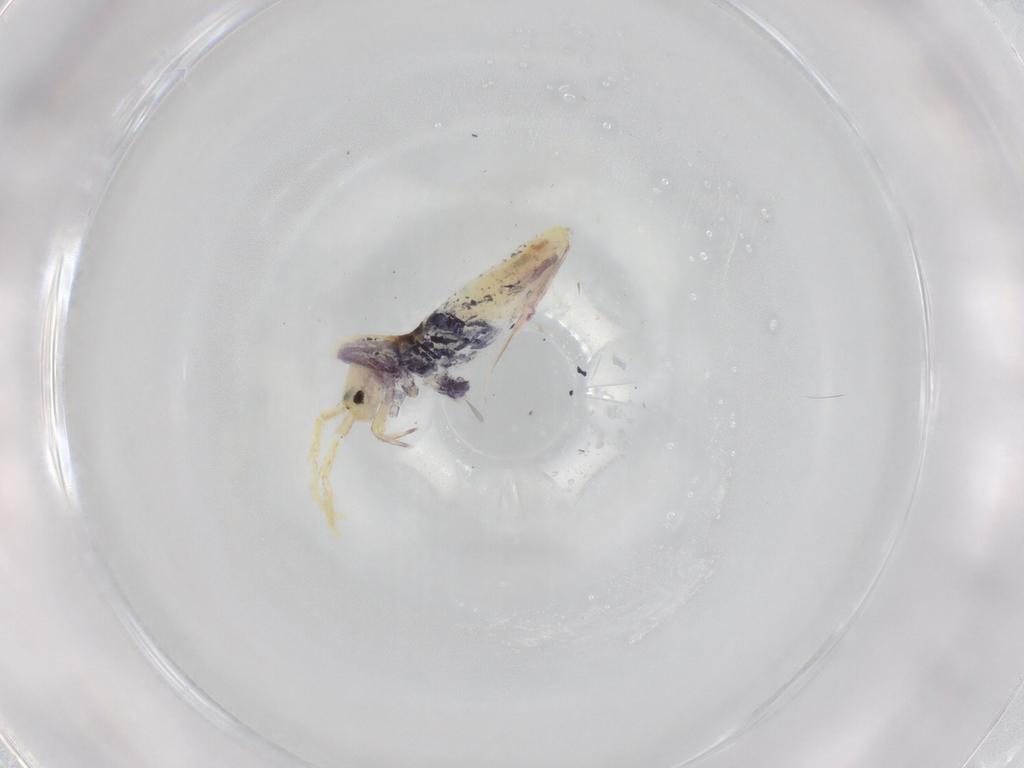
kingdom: Animalia
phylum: Arthropoda
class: Collembola
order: Entomobryomorpha
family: Entomobryidae
